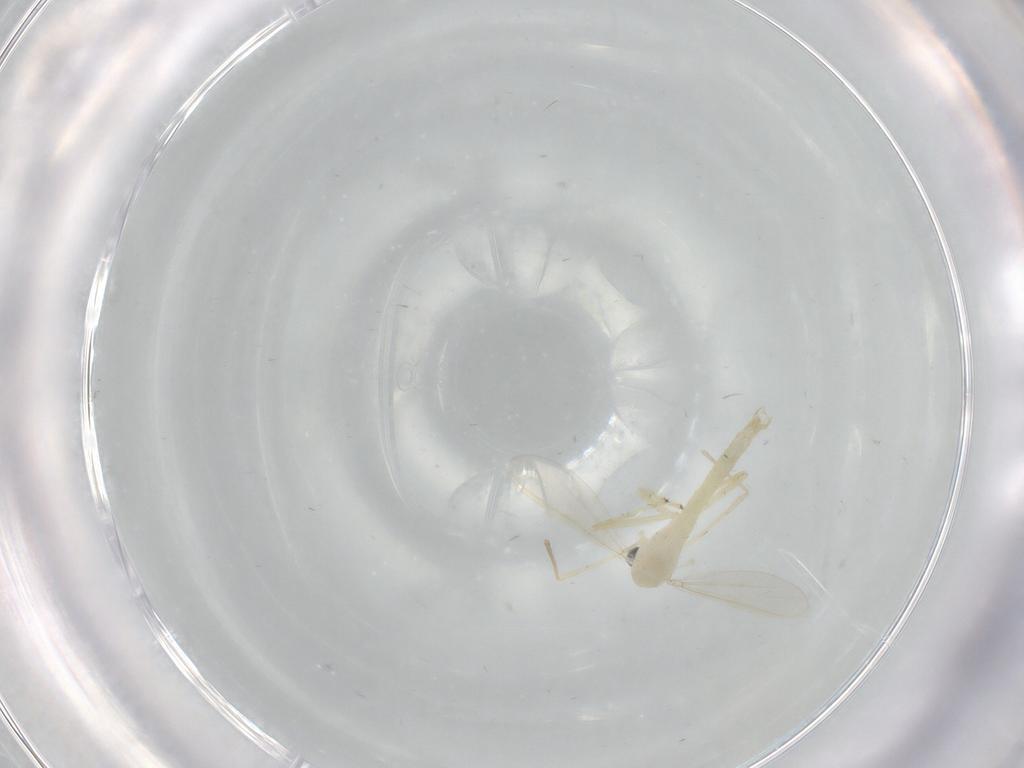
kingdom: Animalia
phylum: Arthropoda
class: Insecta
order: Diptera
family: Chironomidae
